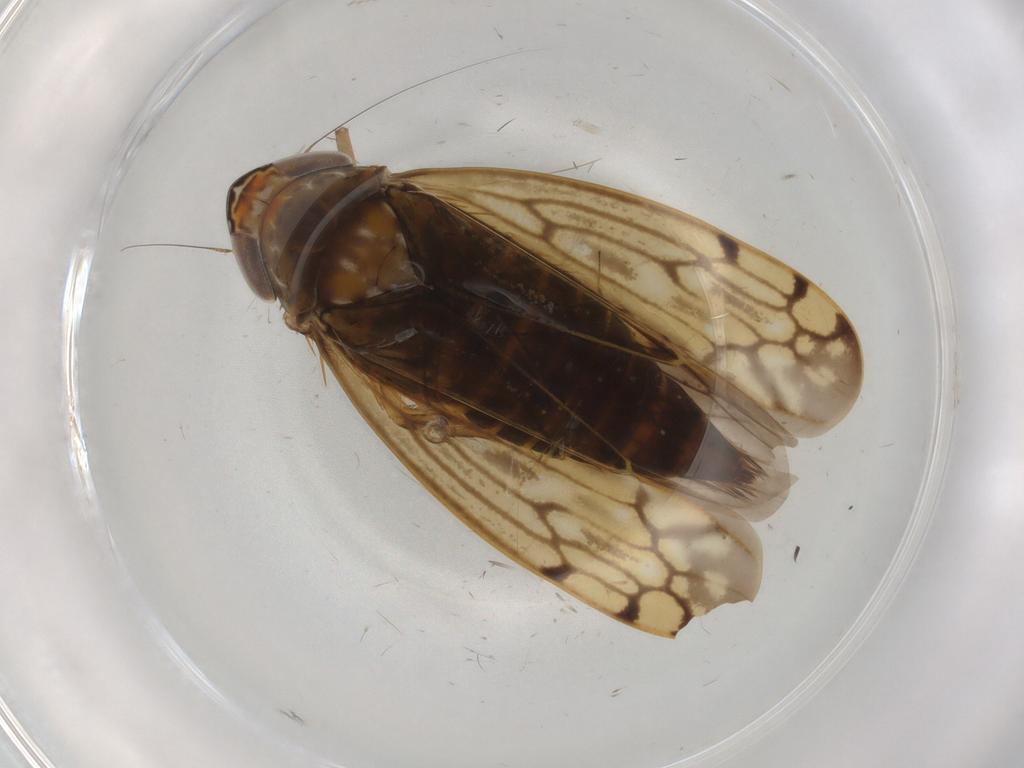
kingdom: Animalia
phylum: Arthropoda
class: Insecta
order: Hemiptera
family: Cicadellidae
